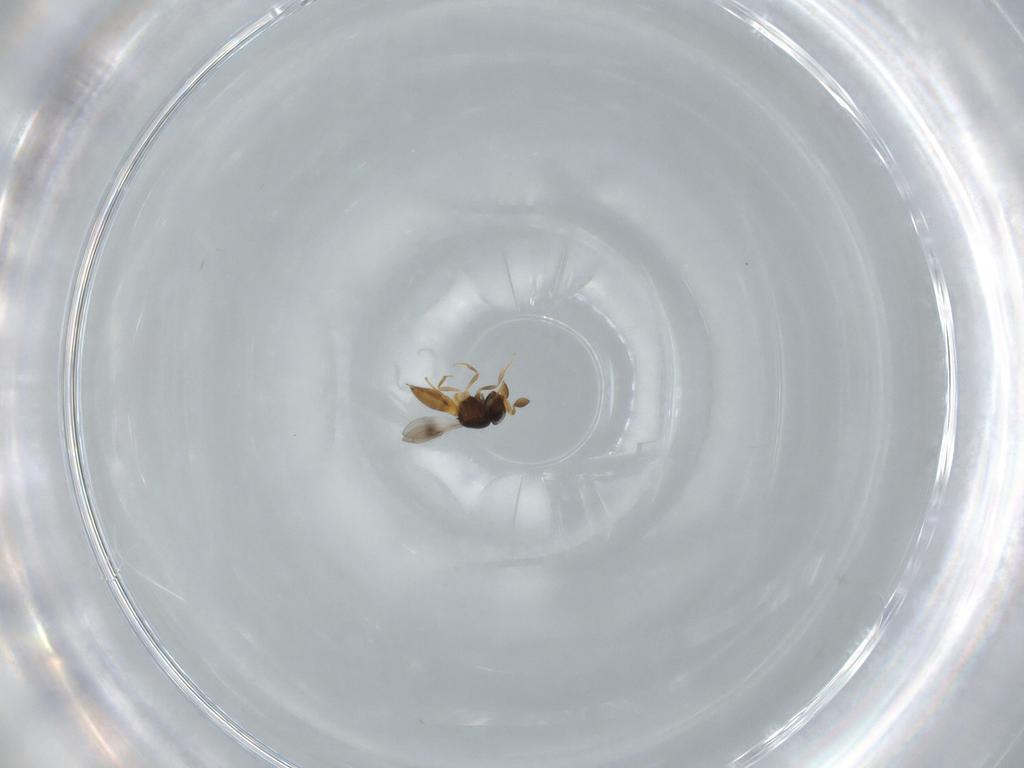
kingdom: Animalia
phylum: Arthropoda
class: Insecta
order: Hymenoptera
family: Scelionidae
